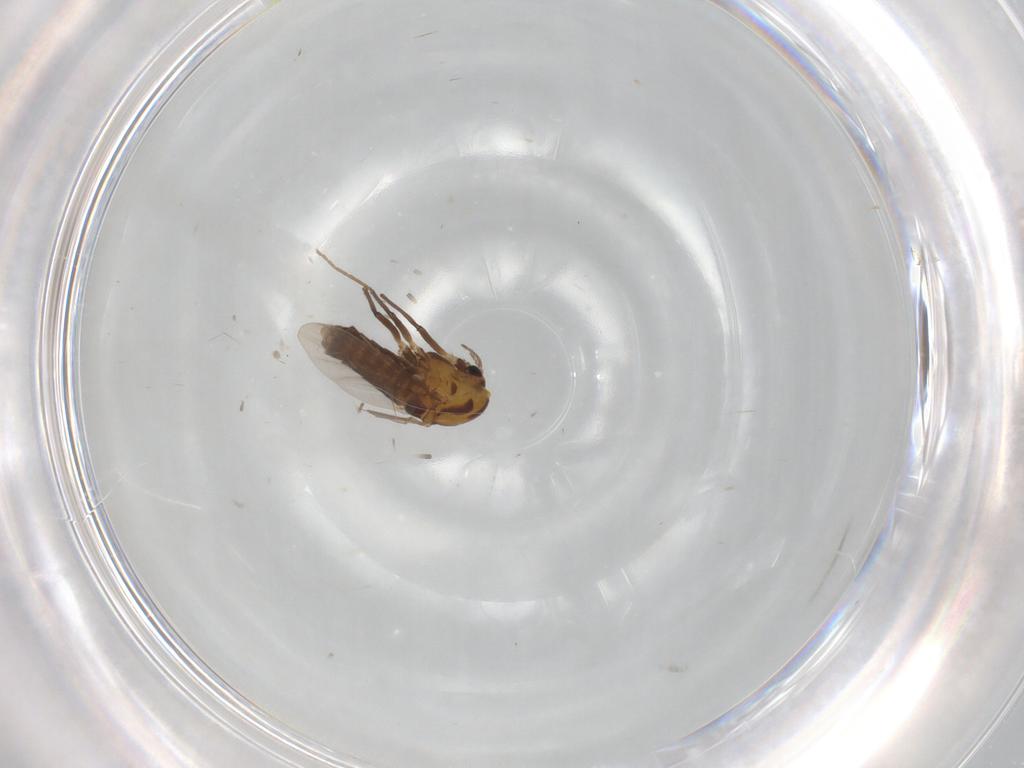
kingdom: Animalia
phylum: Arthropoda
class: Insecta
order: Diptera
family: Chironomidae
